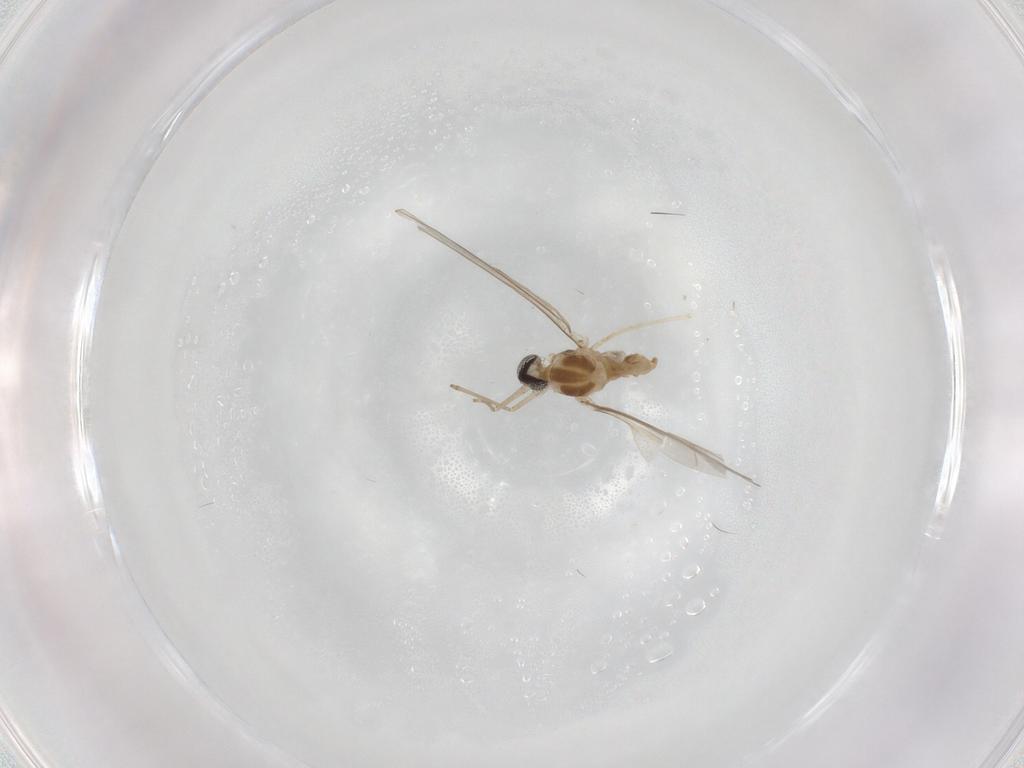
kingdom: Animalia
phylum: Arthropoda
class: Insecta
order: Diptera
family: Cecidomyiidae
